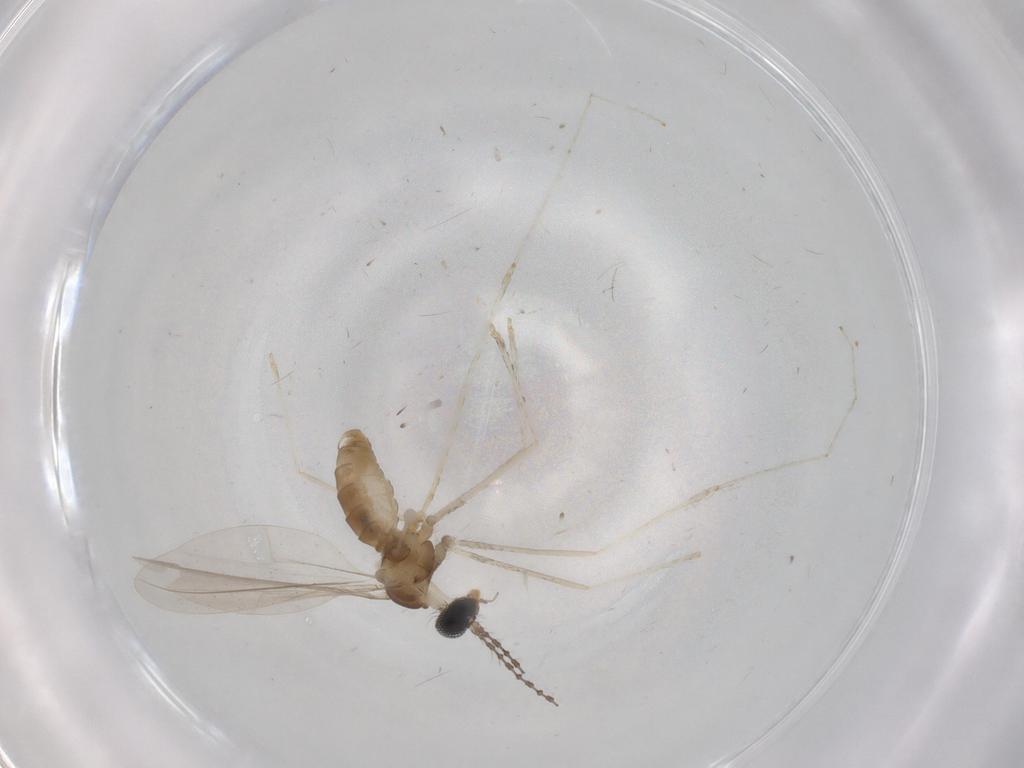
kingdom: Animalia
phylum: Arthropoda
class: Insecta
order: Diptera
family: Cecidomyiidae
